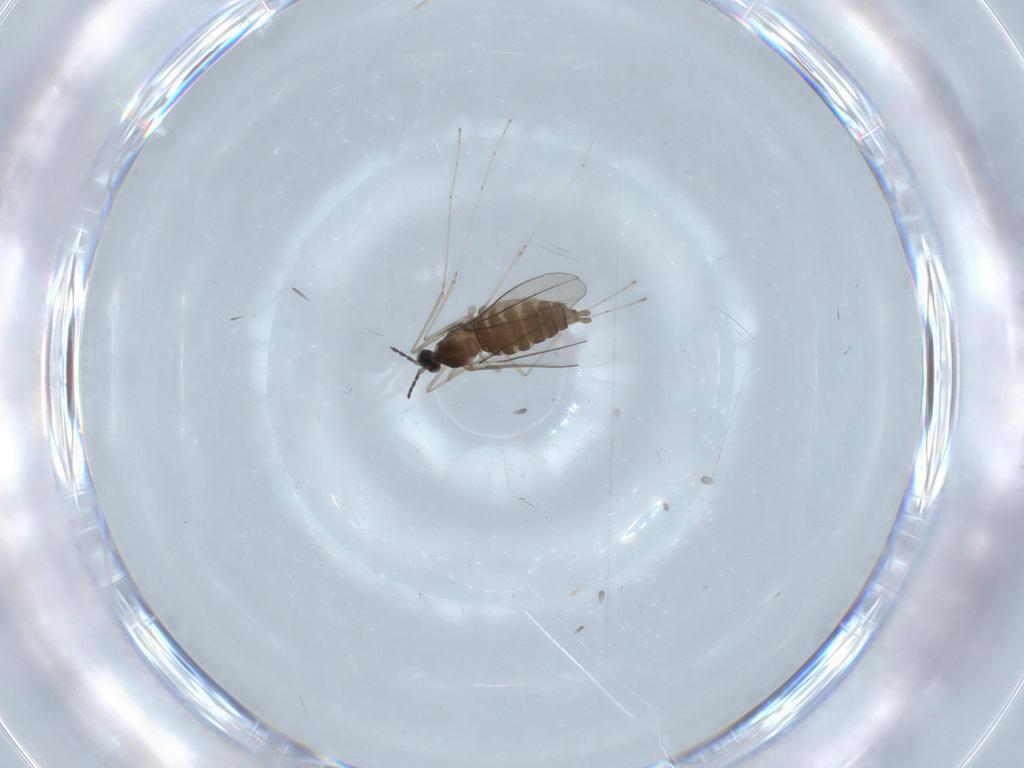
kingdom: Animalia
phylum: Arthropoda
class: Insecta
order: Diptera
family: Cecidomyiidae
